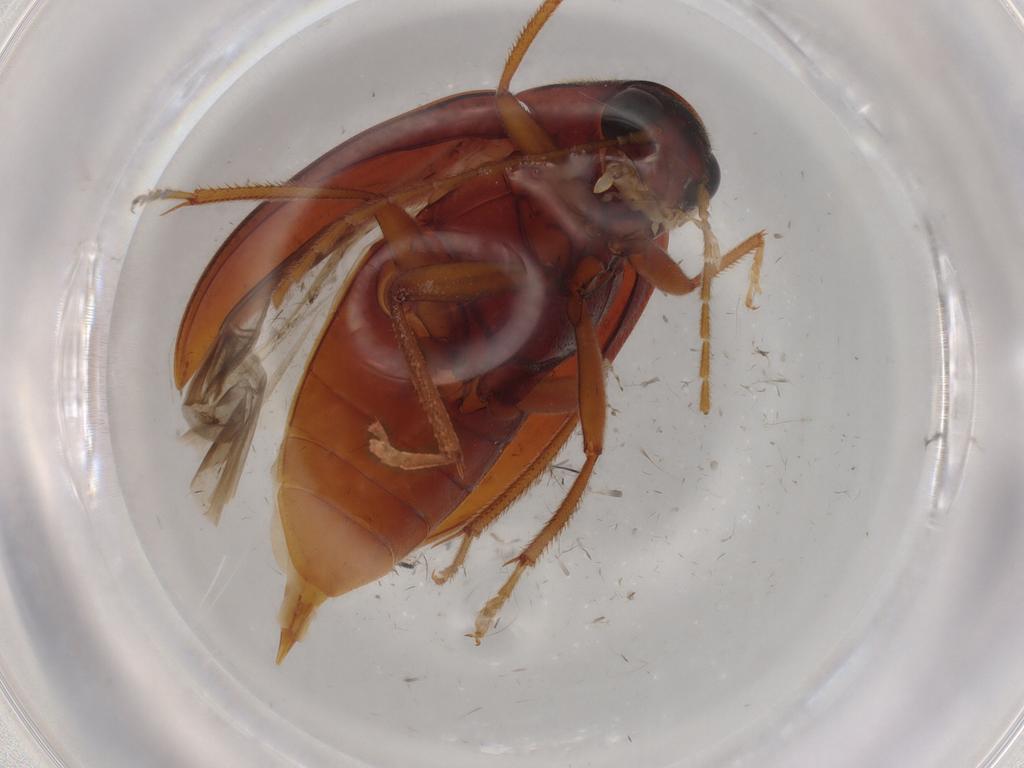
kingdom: Animalia
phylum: Arthropoda
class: Insecta
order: Coleoptera
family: Ptilodactylidae
